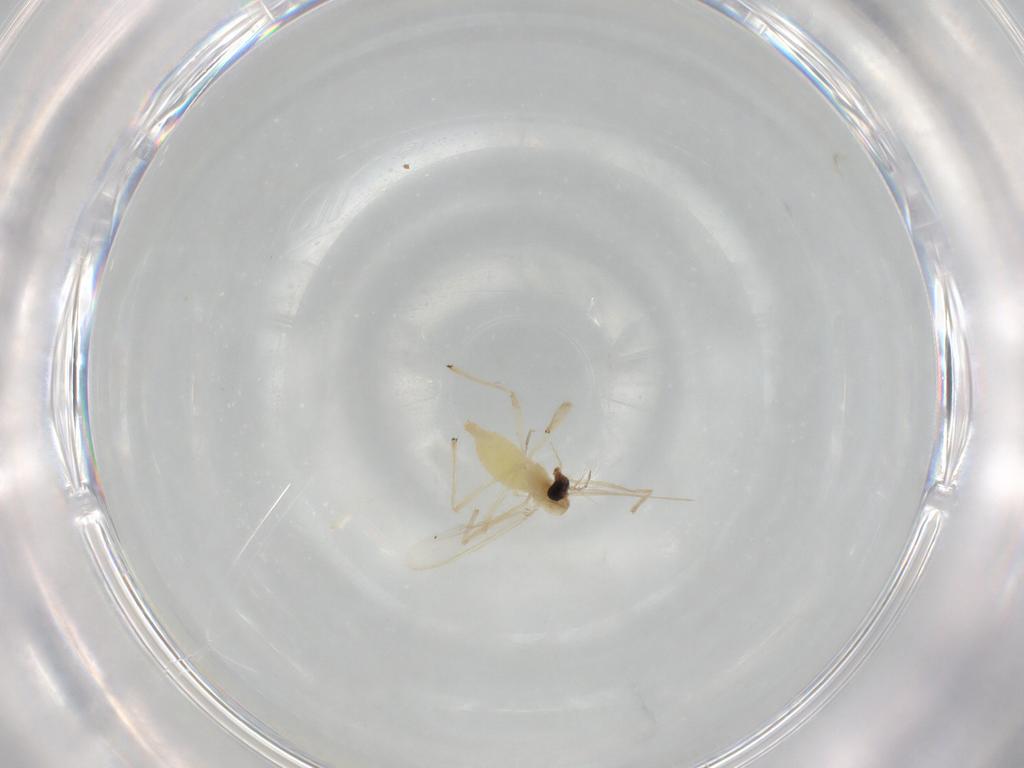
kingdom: Animalia
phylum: Arthropoda
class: Insecta
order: Diptera
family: Chironomidae
